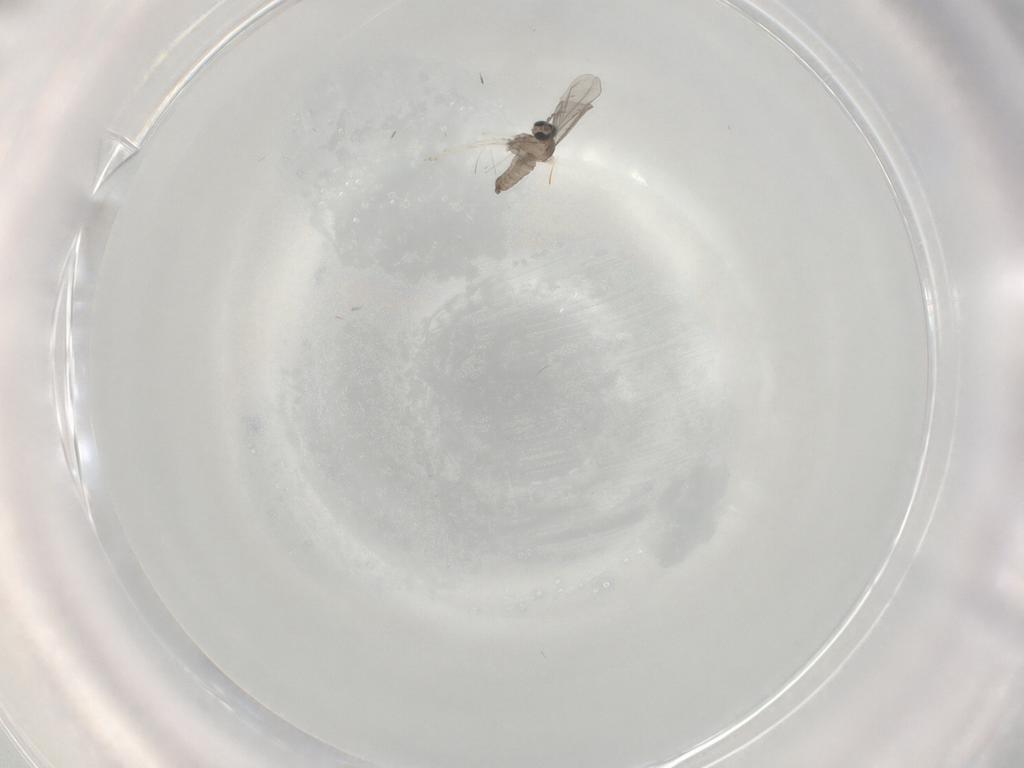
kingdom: Animalia
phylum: Arthropoda
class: Insecta
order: Diptera
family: Ceratopogonidae
